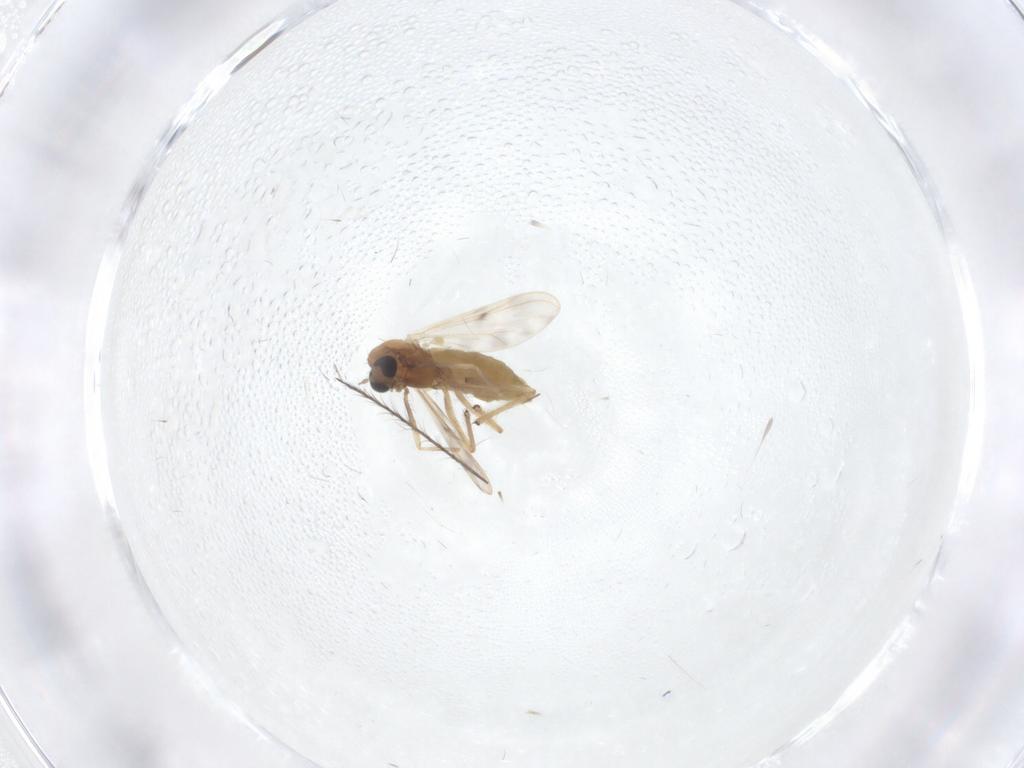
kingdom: Animalia
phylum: Arthropoda
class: Insecta
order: Diptera
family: Chironomidae
